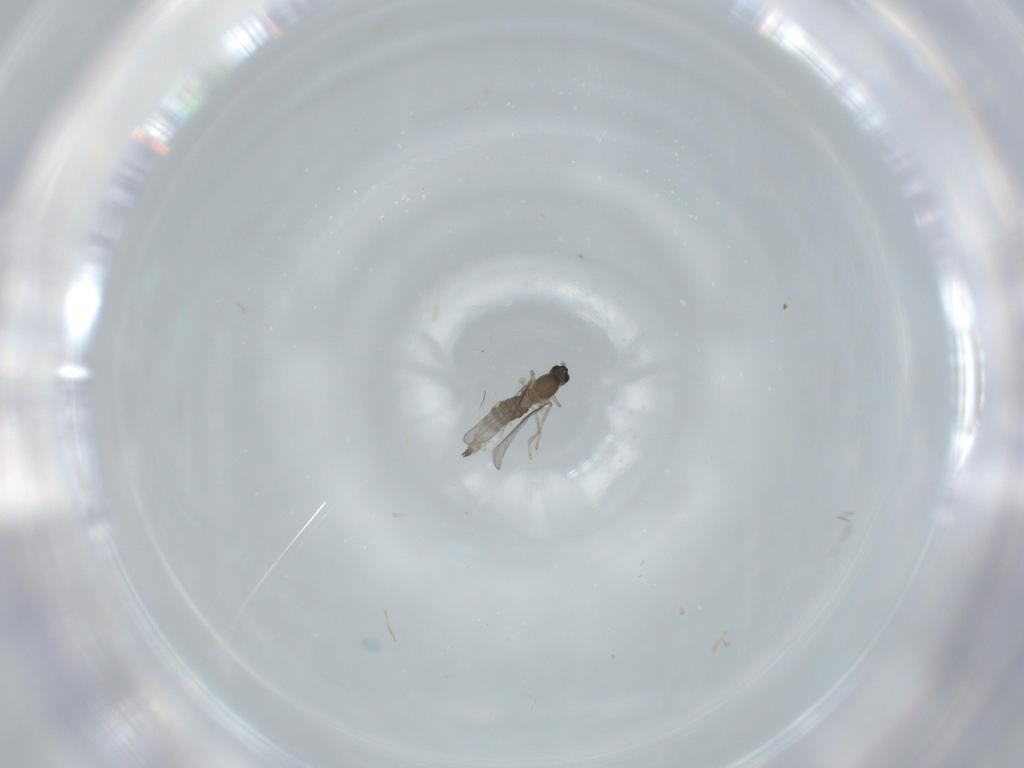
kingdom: Animalia
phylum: Arthropoda
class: Insecta
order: Diptera
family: Cecidomyiidae
